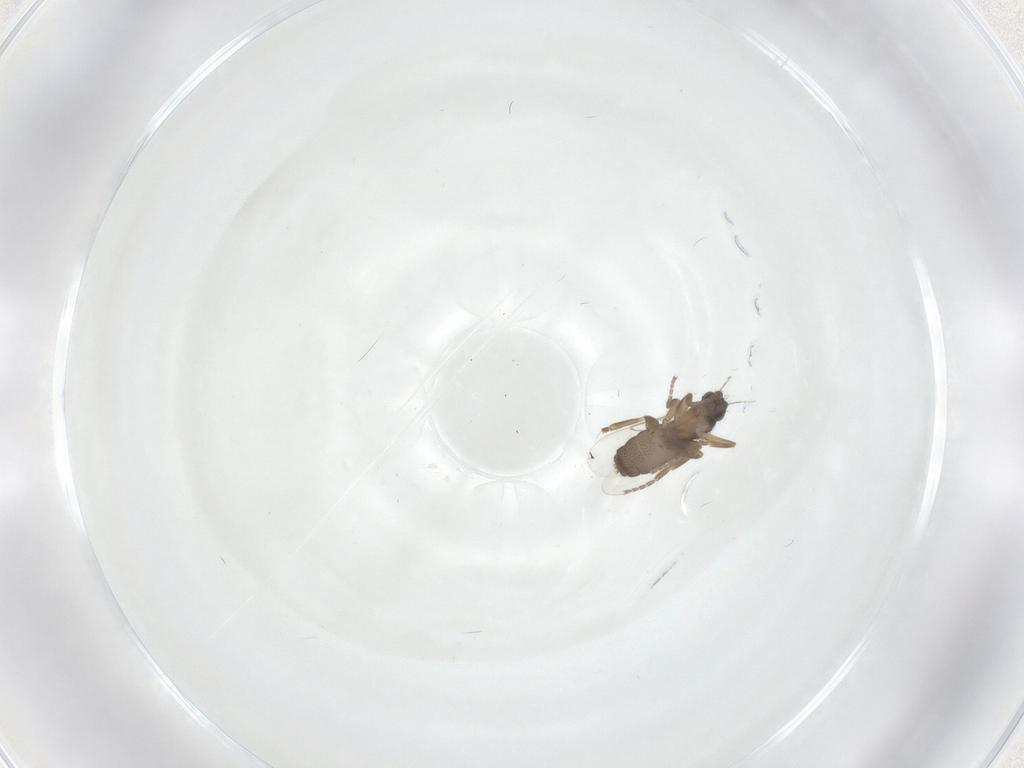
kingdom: Animalia
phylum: Arthropoda
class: Insecta
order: Diptera
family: Phoridae
